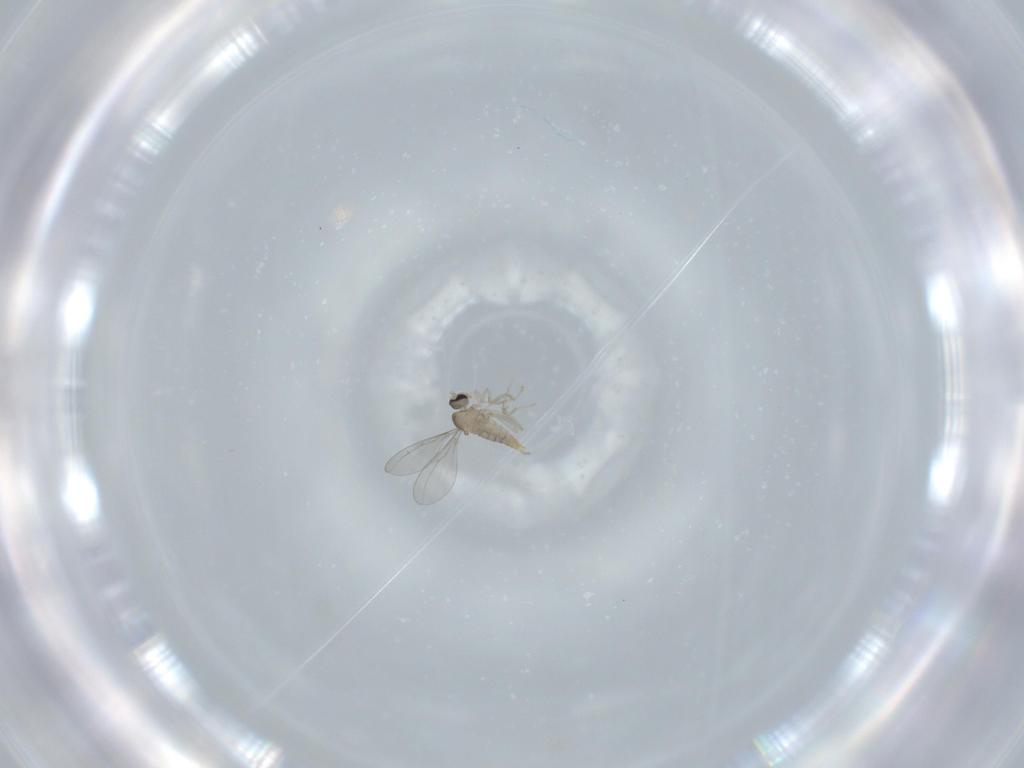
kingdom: Animalia
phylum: Arthropoda
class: Insecta
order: Diptera
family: Cecidomyiidae
